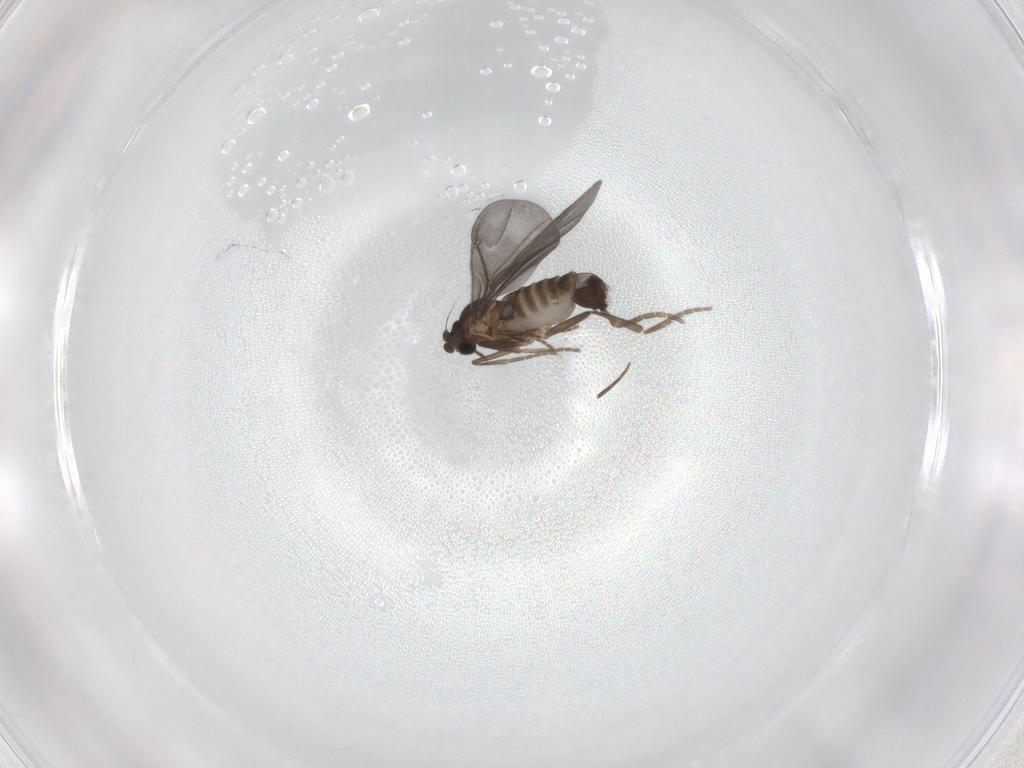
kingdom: Animalia
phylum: Arthropoda
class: Insecta
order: Diptera
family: Phoridae
